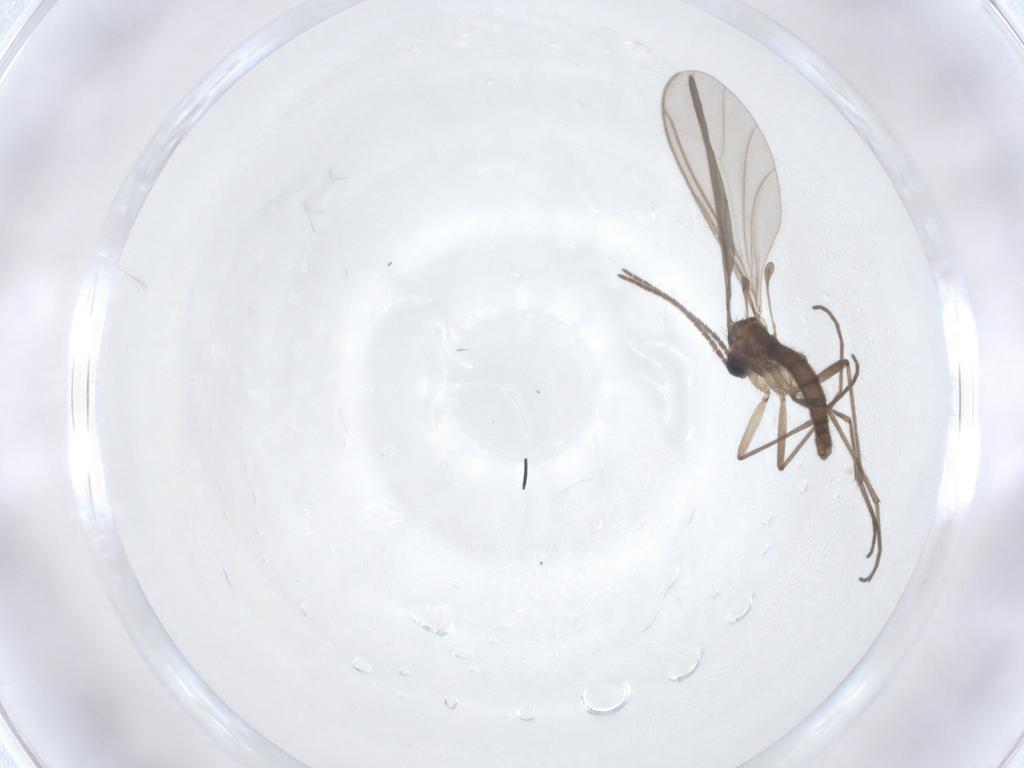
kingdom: Animalia
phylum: Arthropoda
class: Insecta
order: Diptera
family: Sciaridae
